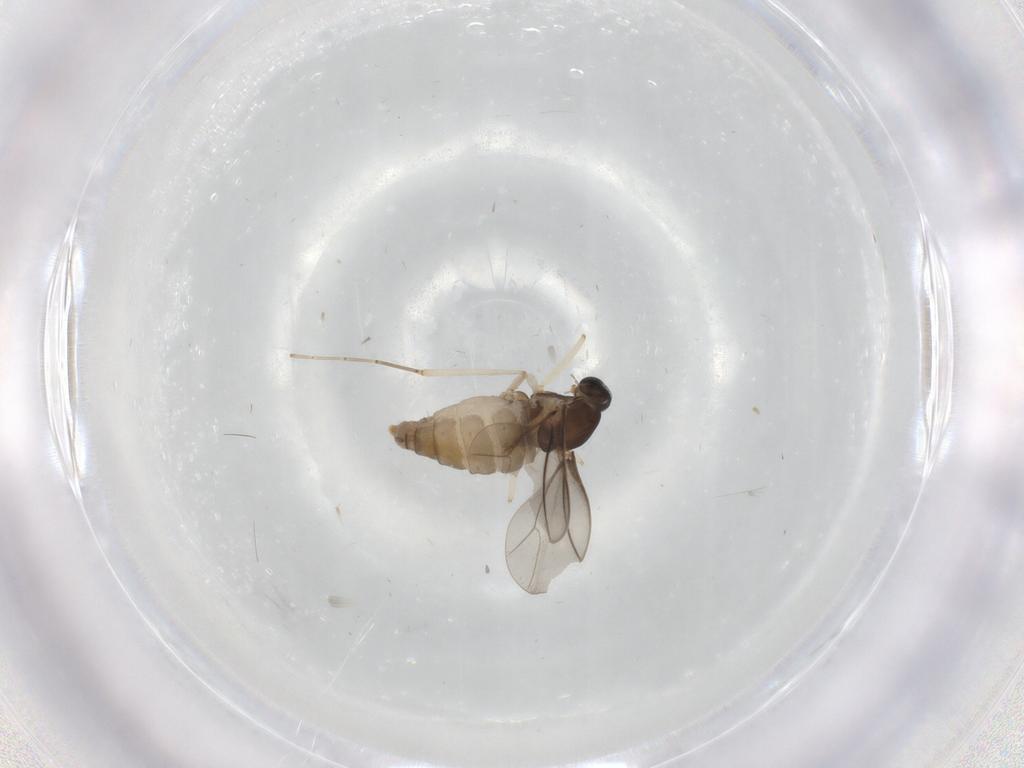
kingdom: Animalia
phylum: Arthropoda
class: Insecta
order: Diptera
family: Cecidomyiidae
